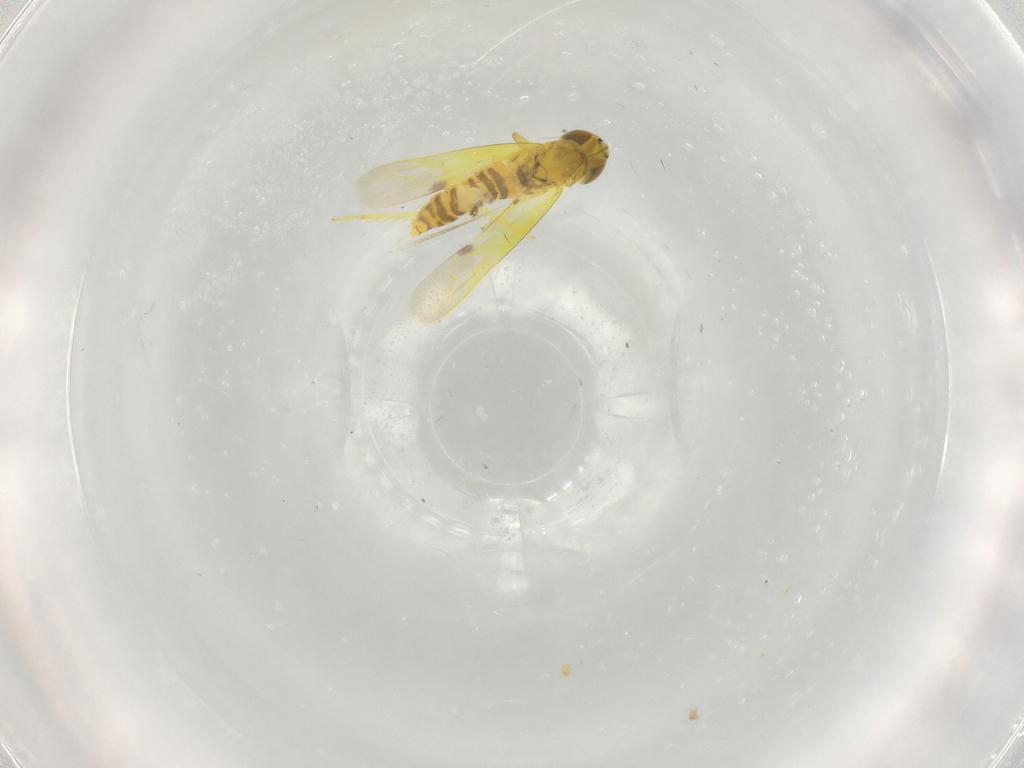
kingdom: Animalia
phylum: Arthropoda
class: Insecta
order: Hemiptera
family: Cicadellidae
